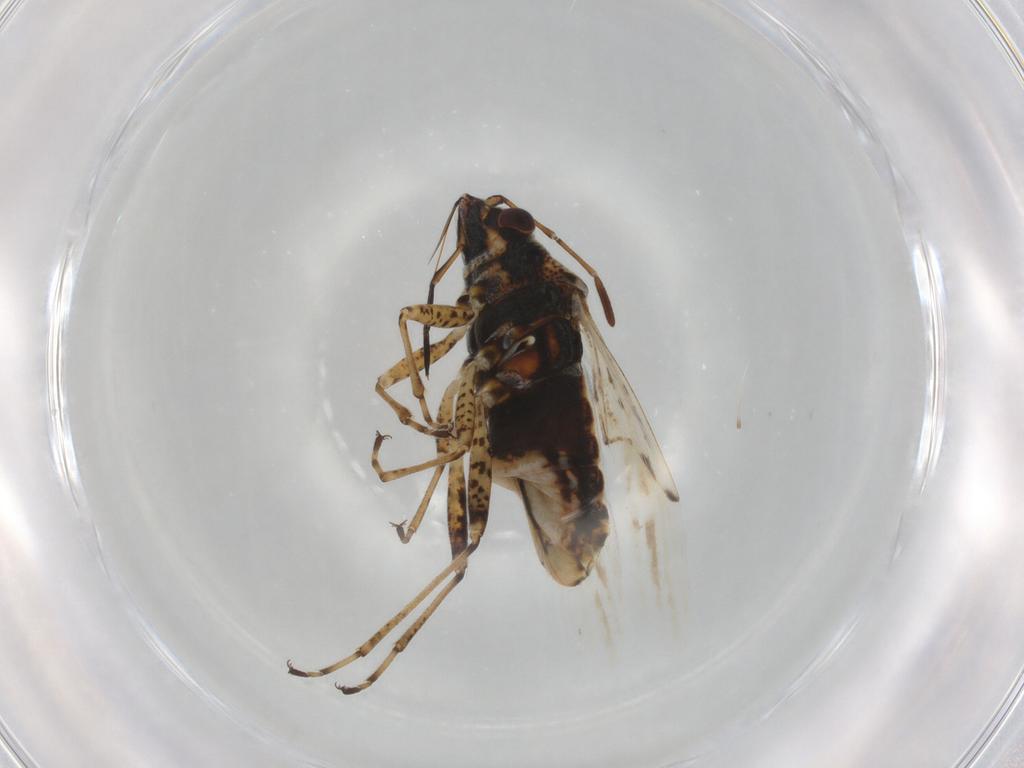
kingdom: Animalia
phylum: Arthropoda
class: Insecta
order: Hemiptera
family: Lygaeidae
